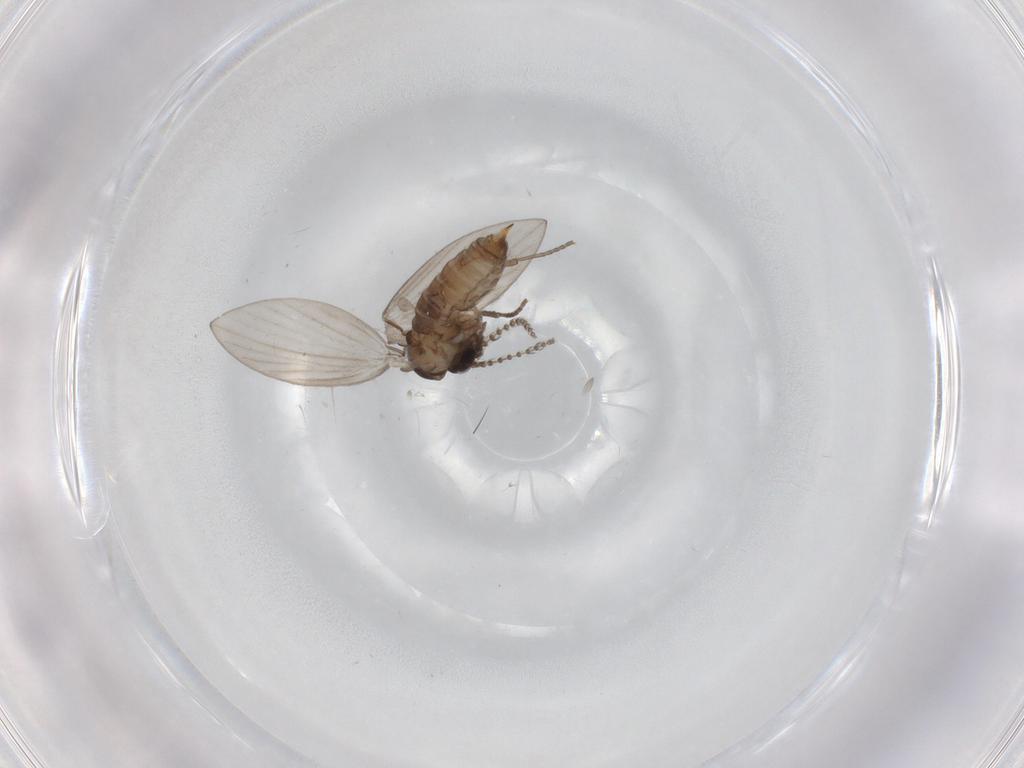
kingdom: Animalia
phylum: Arthropoda
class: Insecta
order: Diptera
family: Psychodidae
